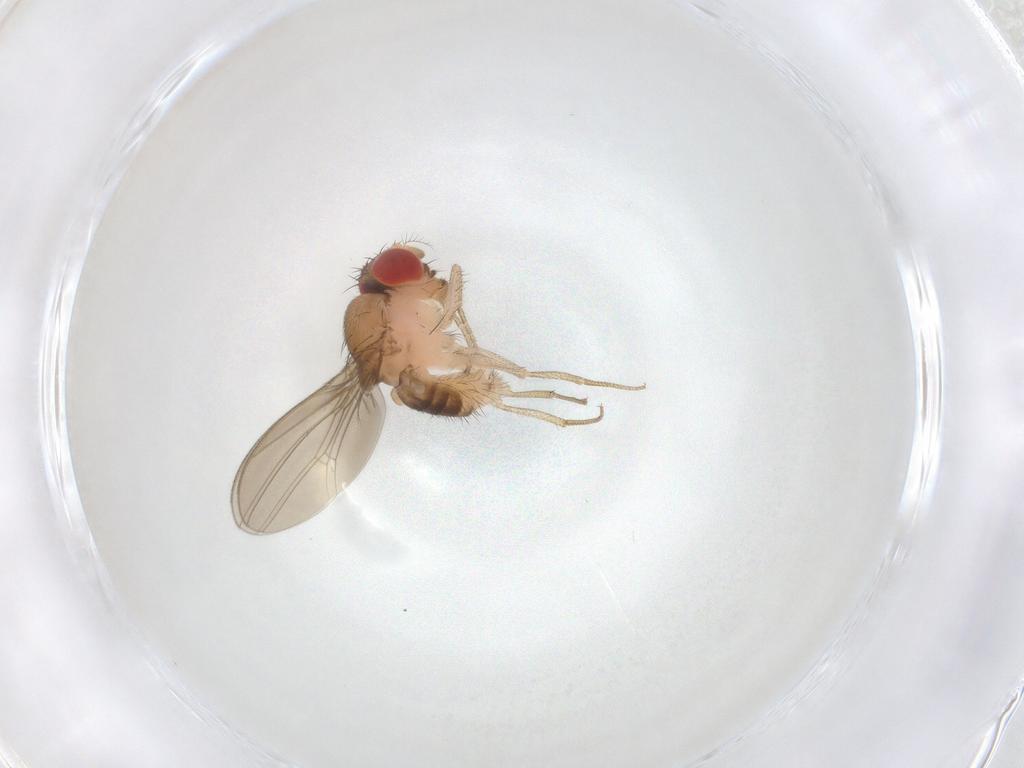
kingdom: Animalia
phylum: Arthropoda
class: Insecta
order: Diptera
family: Drosophilidae
